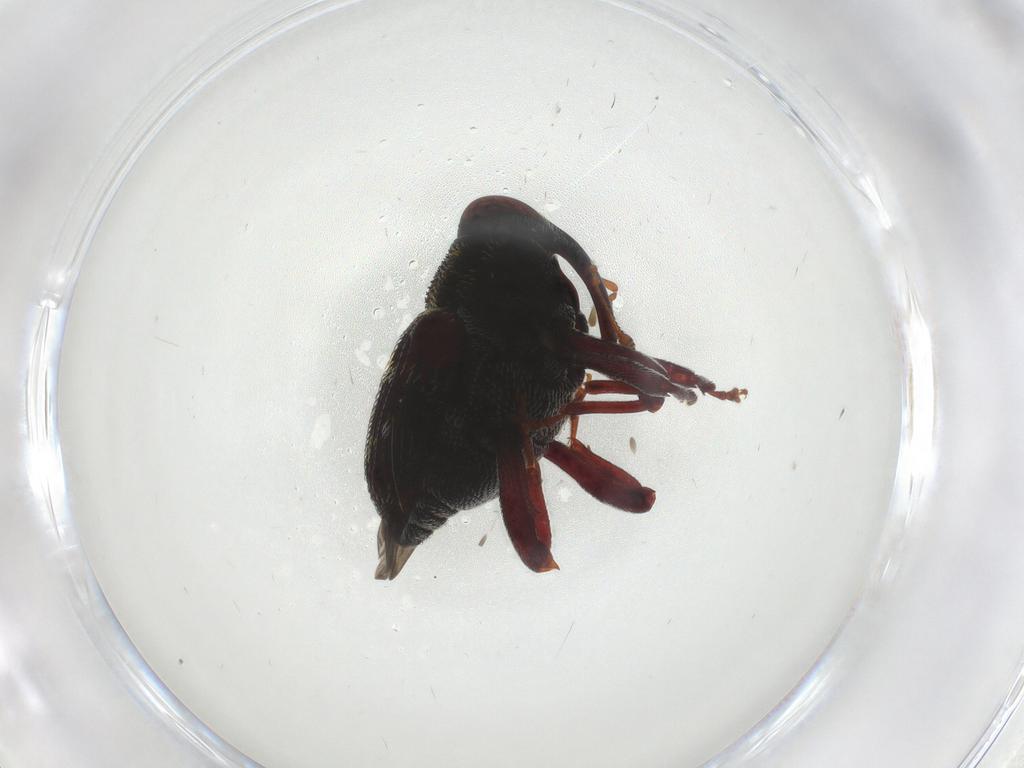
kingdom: Animalia
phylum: Arthropoda
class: Insecta
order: Coleoptera
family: Curculionidae
